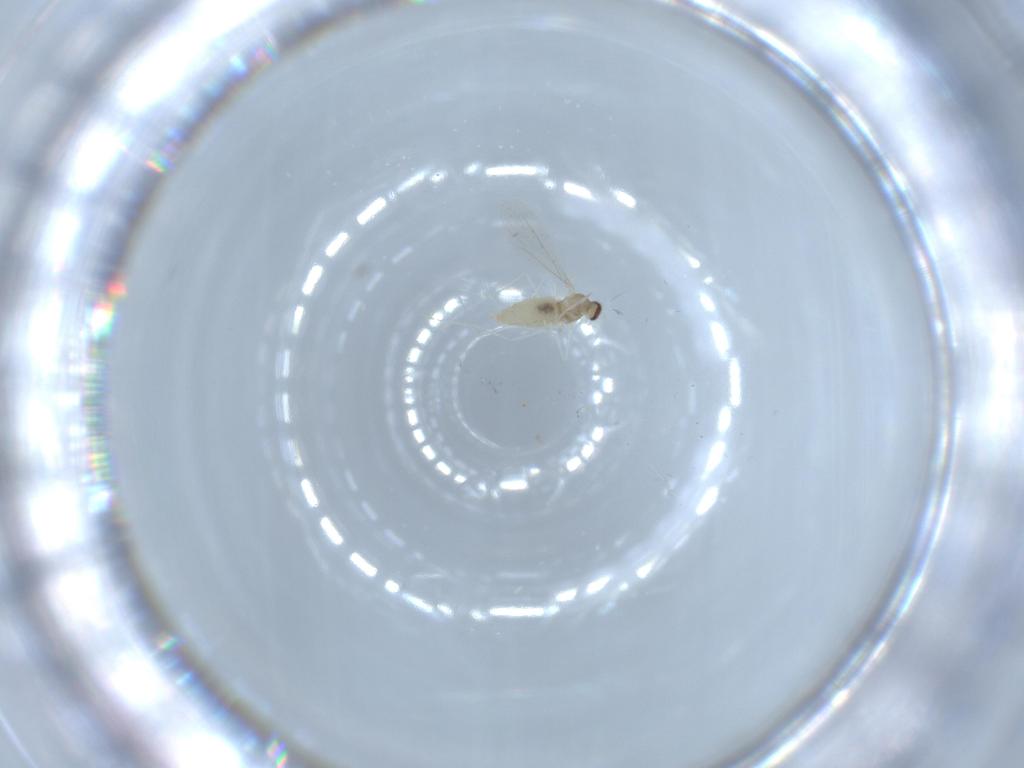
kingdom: Animalia
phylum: Arthropoda
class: Insecta
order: Diptera
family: Cecidomyiidae
